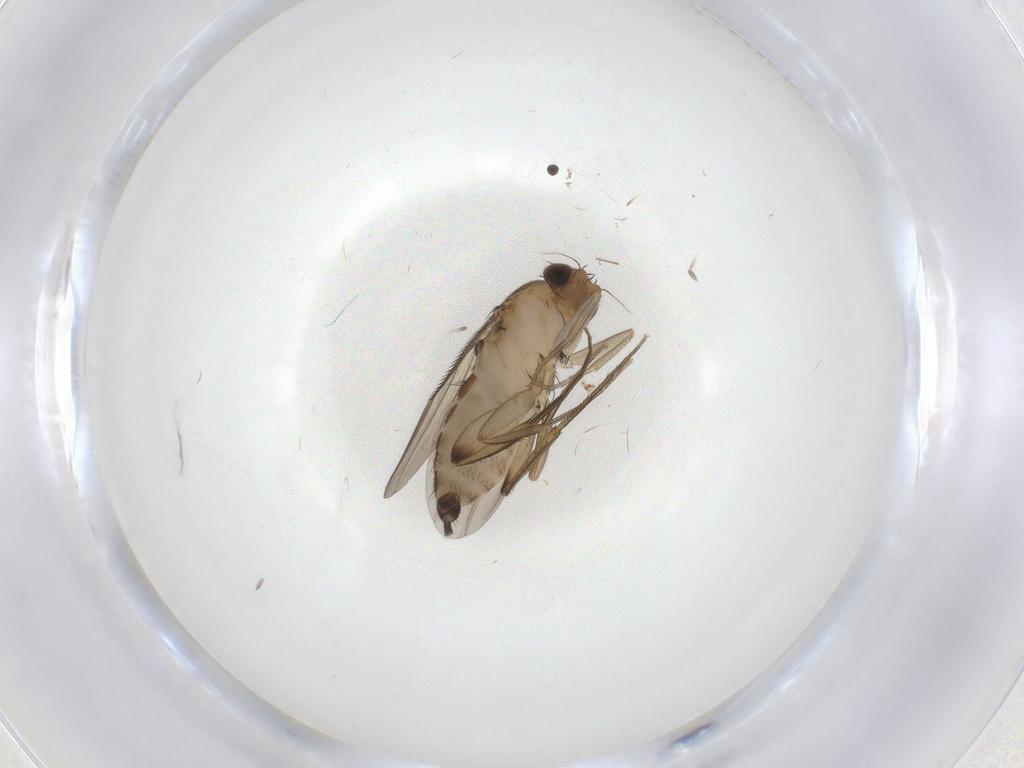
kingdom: Animalia
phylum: Arthropoda
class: Insecta
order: Diptera
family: Phoridae
